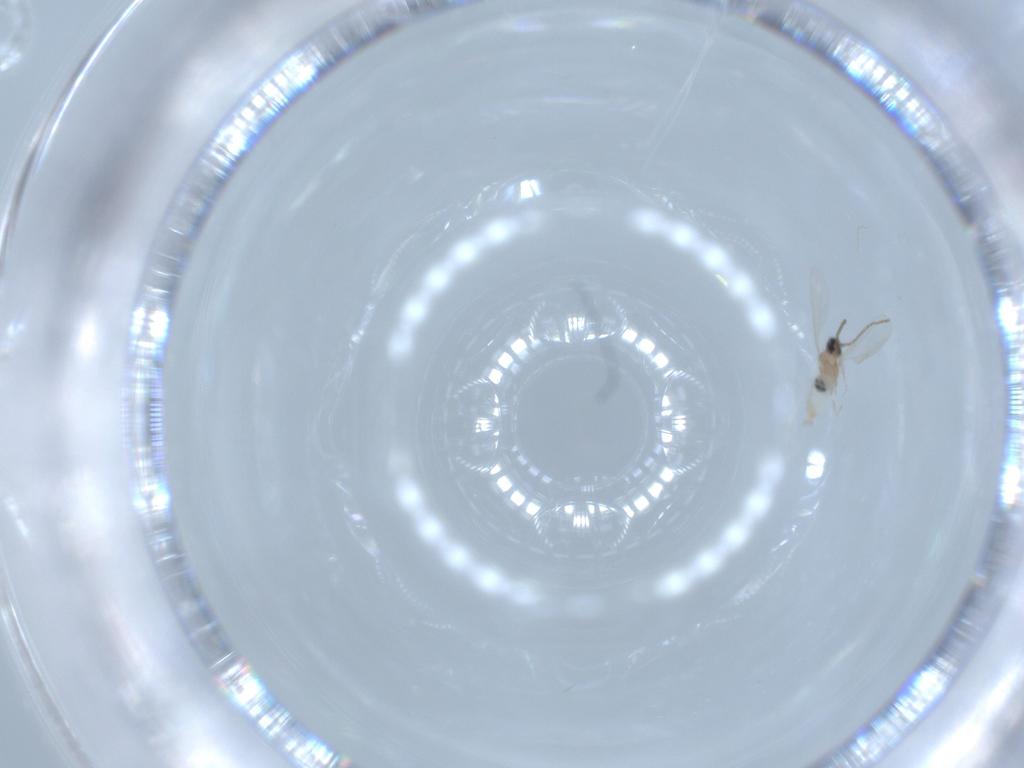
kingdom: Animalia
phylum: Arthropoda
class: Insecta
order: Diptera
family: Cecidomyiidae
